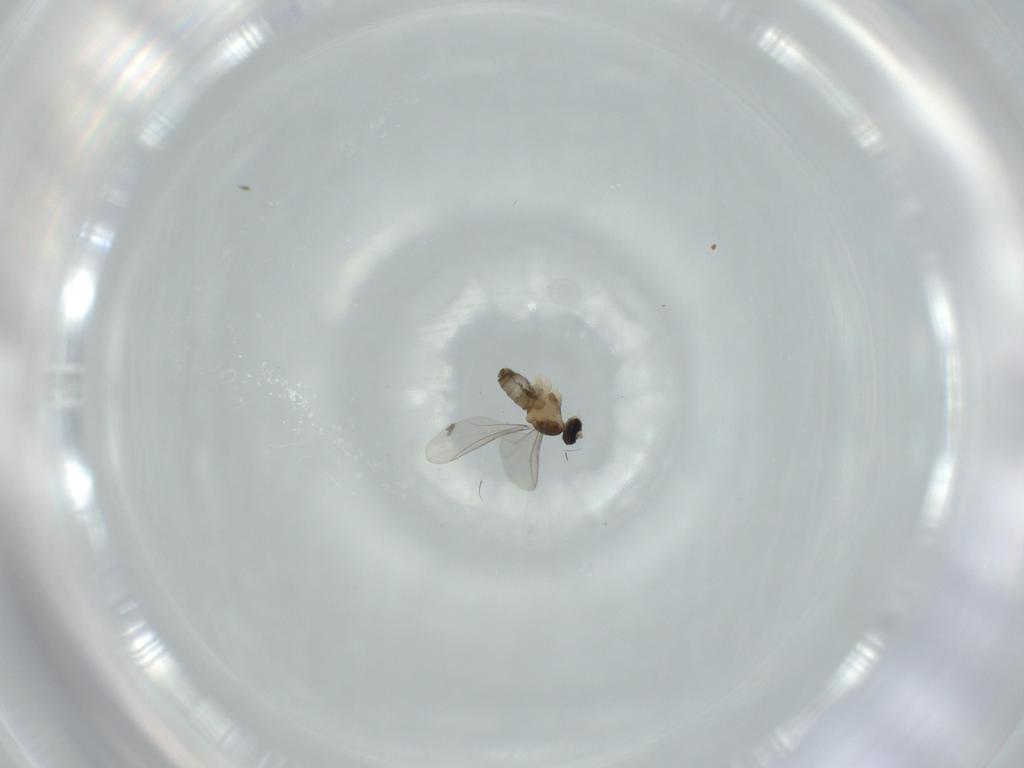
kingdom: Animalia
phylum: Arthropoda
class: Insecta
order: Diptera
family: Cecidomyiidae
